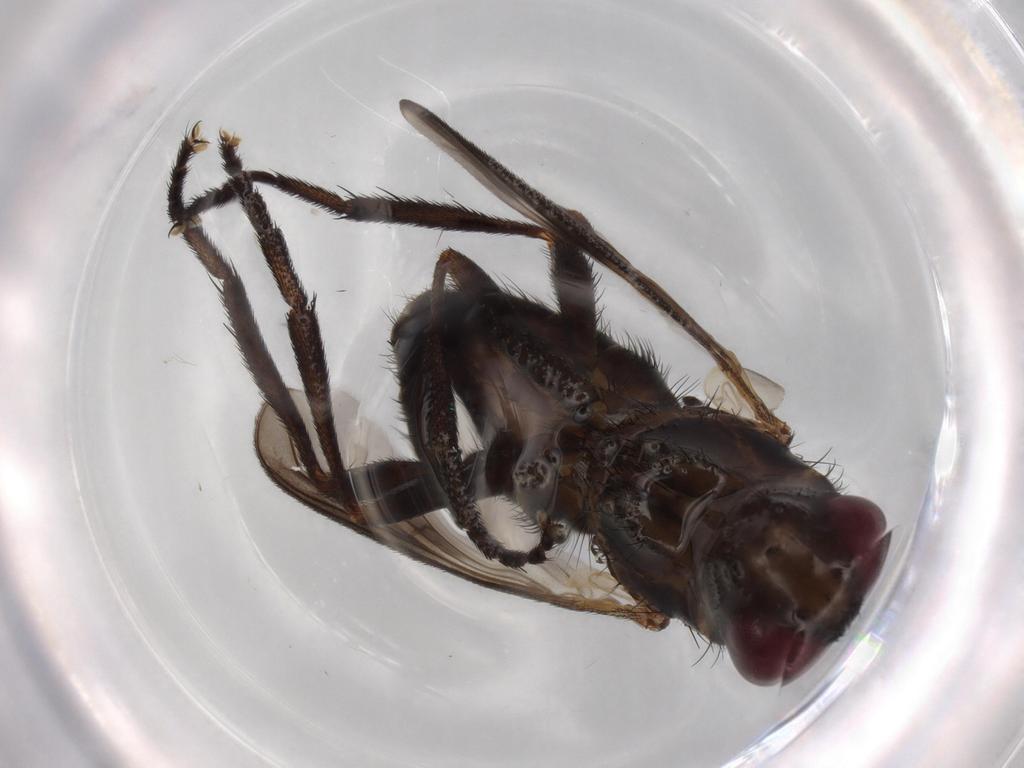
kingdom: Animalia
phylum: Arthropoda
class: Insecta
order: Diptera
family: Calliphoridae
